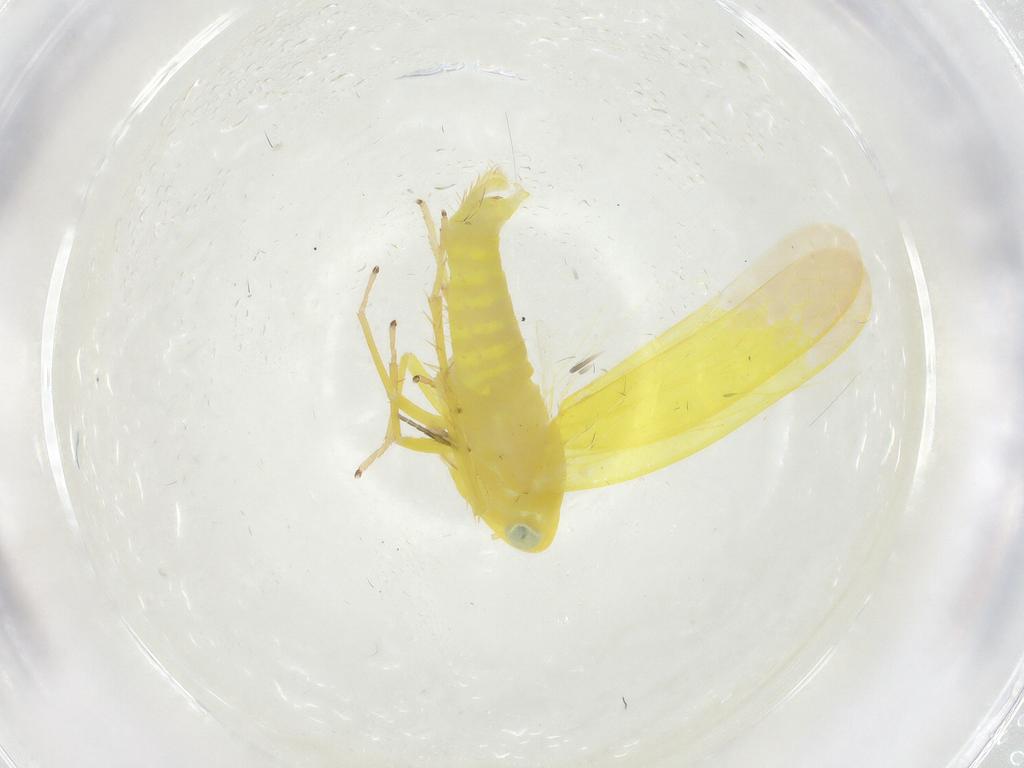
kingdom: Animalia
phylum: Arthropoda
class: Insecta
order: Hemiptera
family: Cicadellidae
